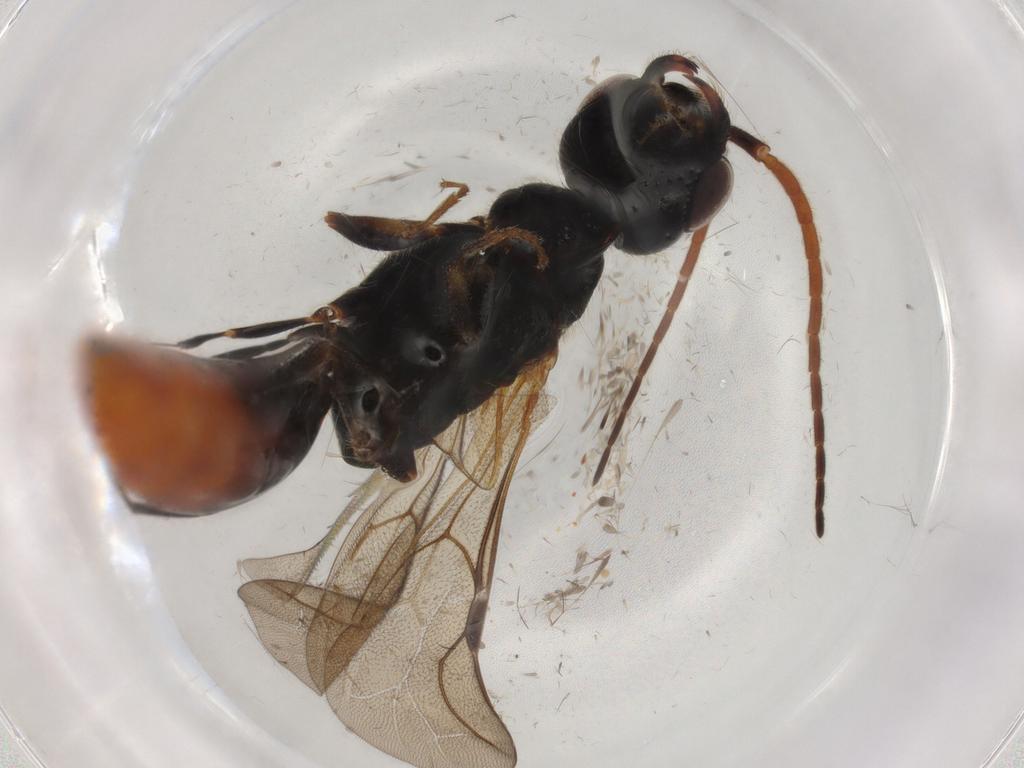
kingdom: Animalia
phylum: Arthropoda
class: Insecta
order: Hymenoptera
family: Bethylidae
